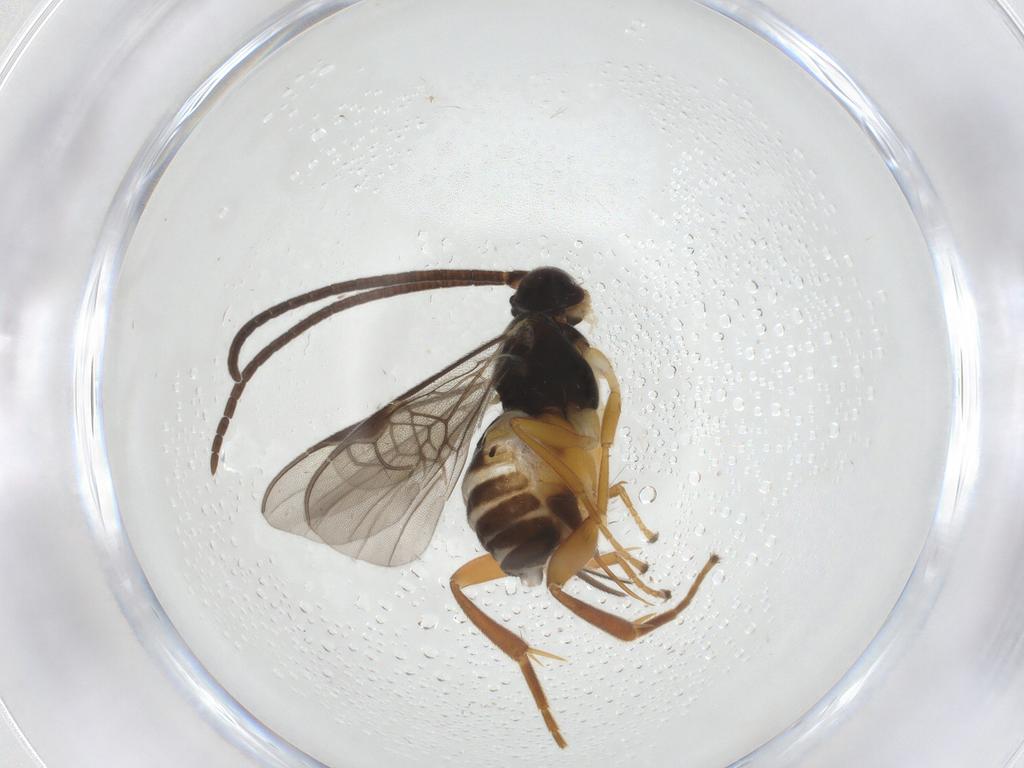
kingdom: Animalia
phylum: Arthropoda
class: Insecta
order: Hymenoptera
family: Braconidae
